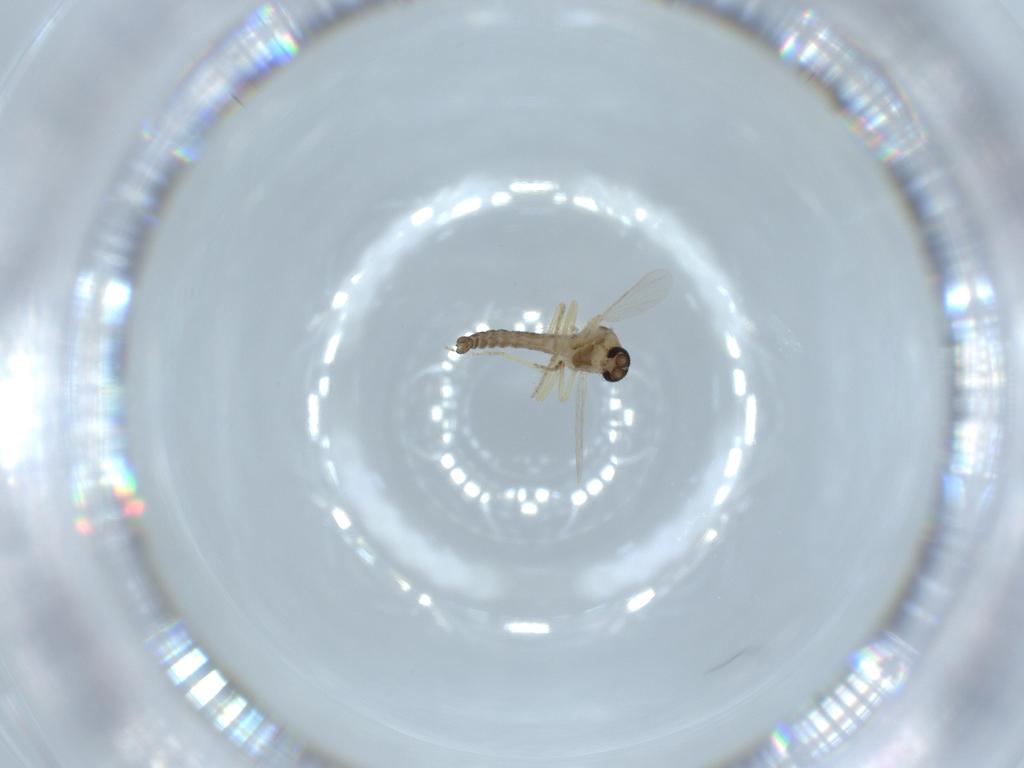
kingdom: Animalia
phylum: Arthropoda
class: Insecta
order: Diptera
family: Ceratopogonidae
